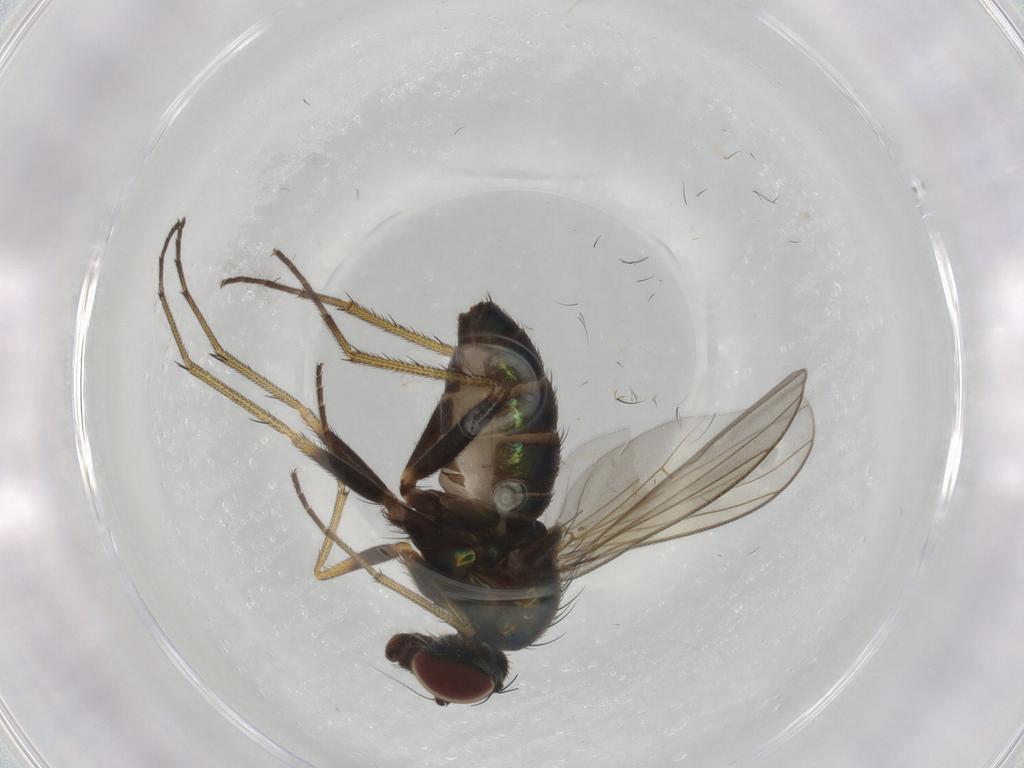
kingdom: Animalia
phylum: Arthropoda
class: Insecta
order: Diptera
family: Dolichopodidae
